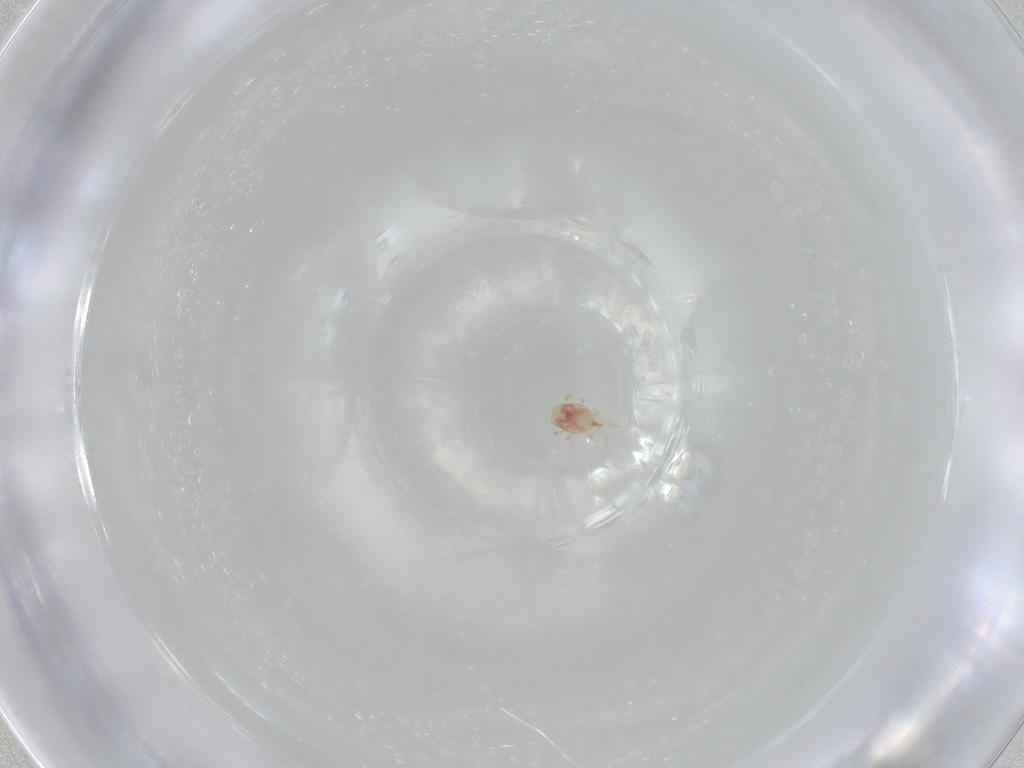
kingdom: Animalia
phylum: Arthropoda
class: Arachnida
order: Mesostigmata
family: Phytoseiidae
